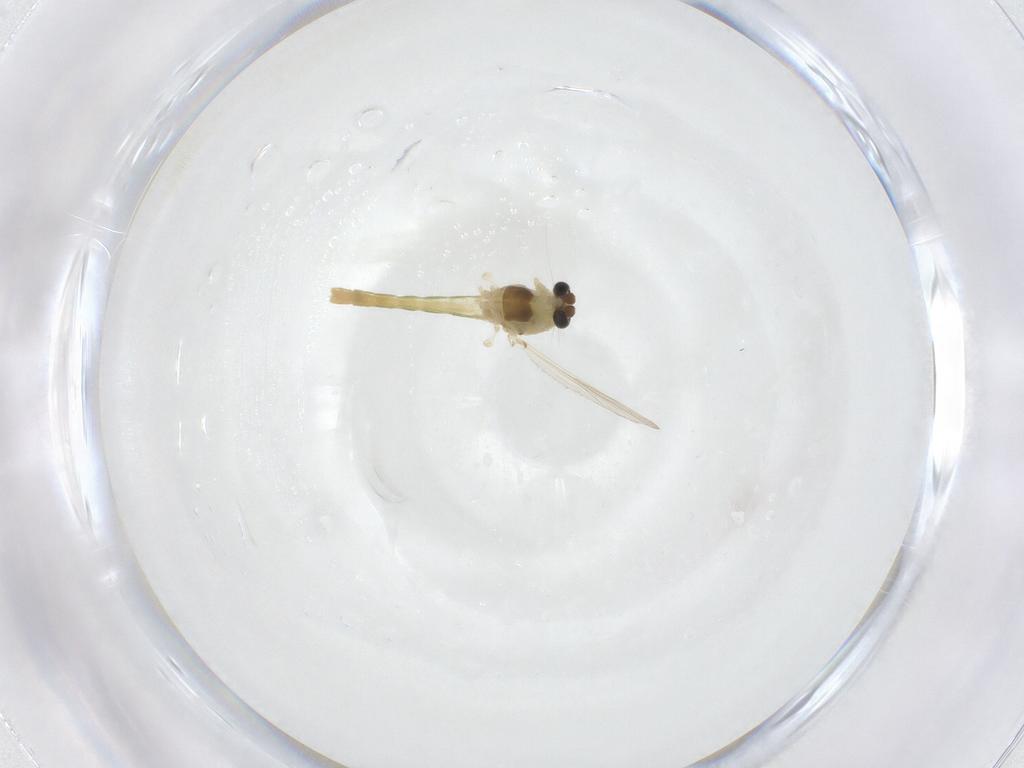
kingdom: Animalia
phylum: Arthropoda
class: Insecta
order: Diptera
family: Chironomidae
